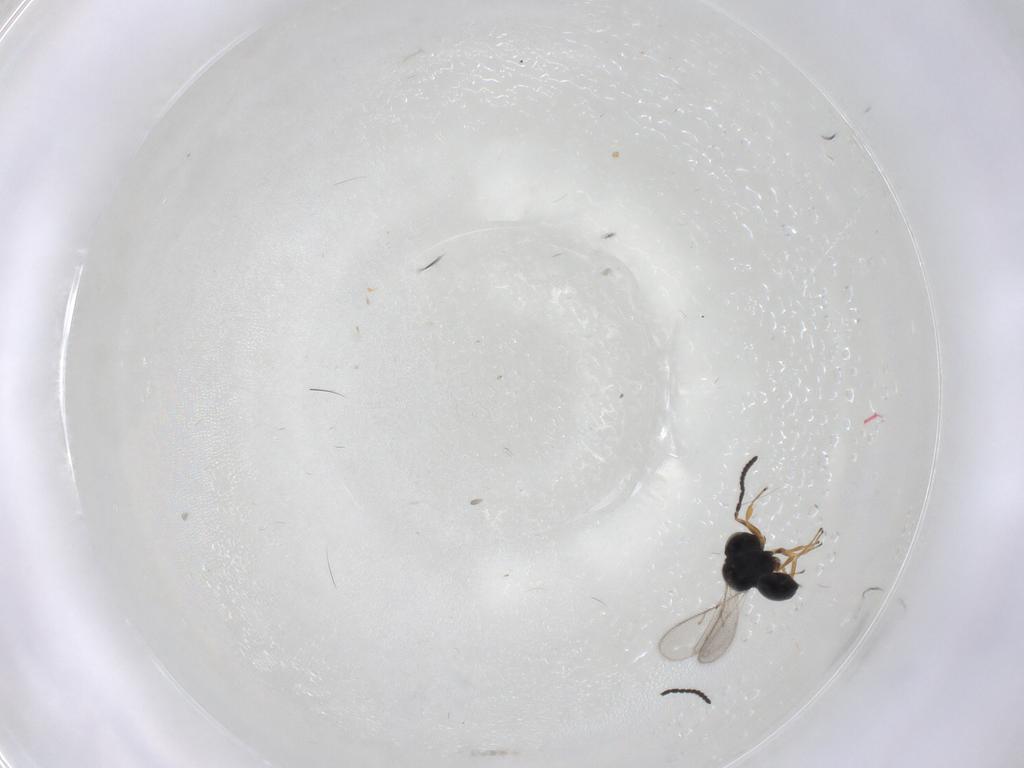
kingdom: Animalia
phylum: Arthropoda
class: Insecta
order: Hymenoptera
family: Scelionidae
